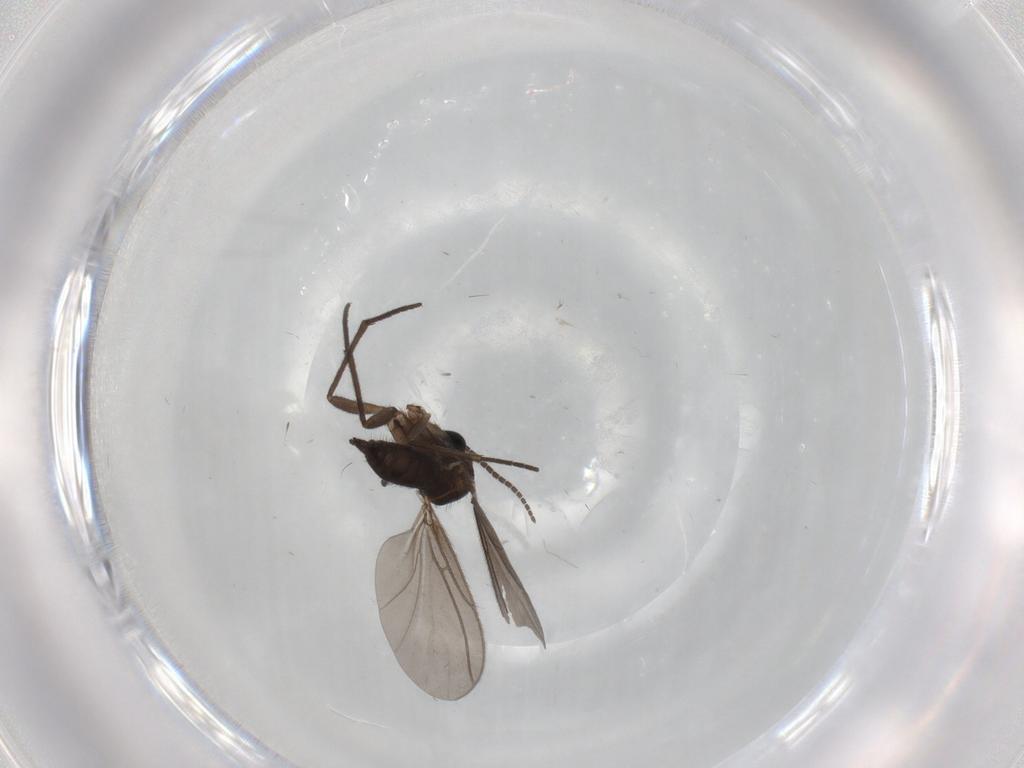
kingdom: Animalia
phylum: Arthropoda
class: Insecta
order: Diptera
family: Sciaridae
